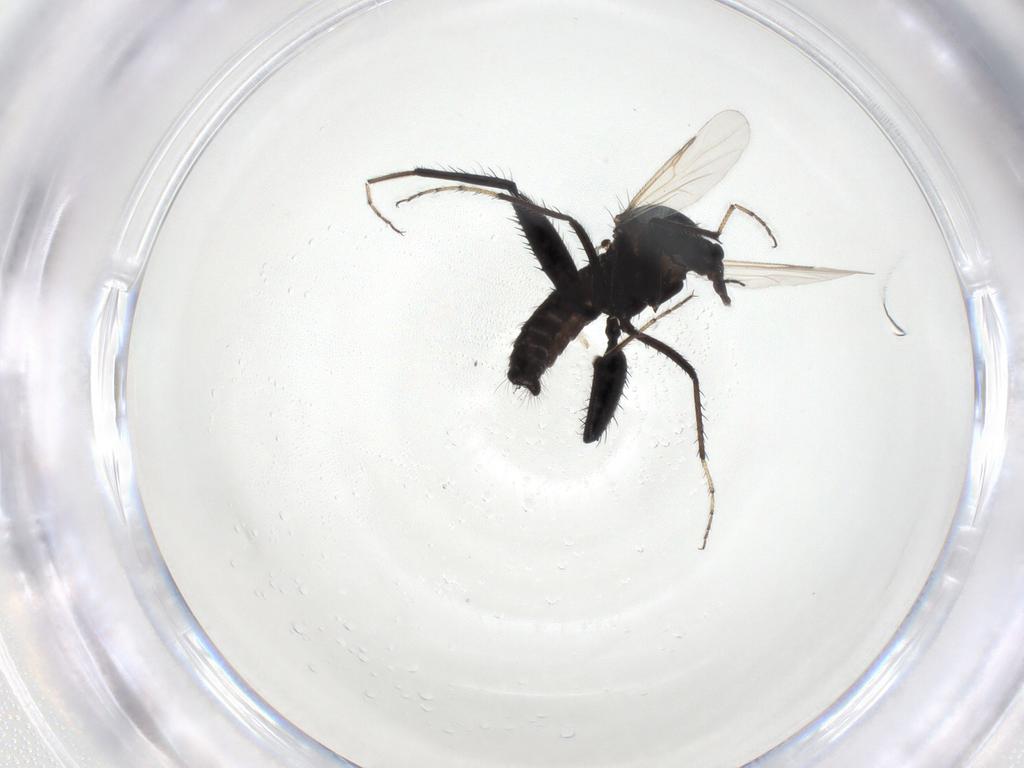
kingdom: Animalia
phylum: Arthropoda
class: Insecta
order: Diptera
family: Ceratopogonidae
